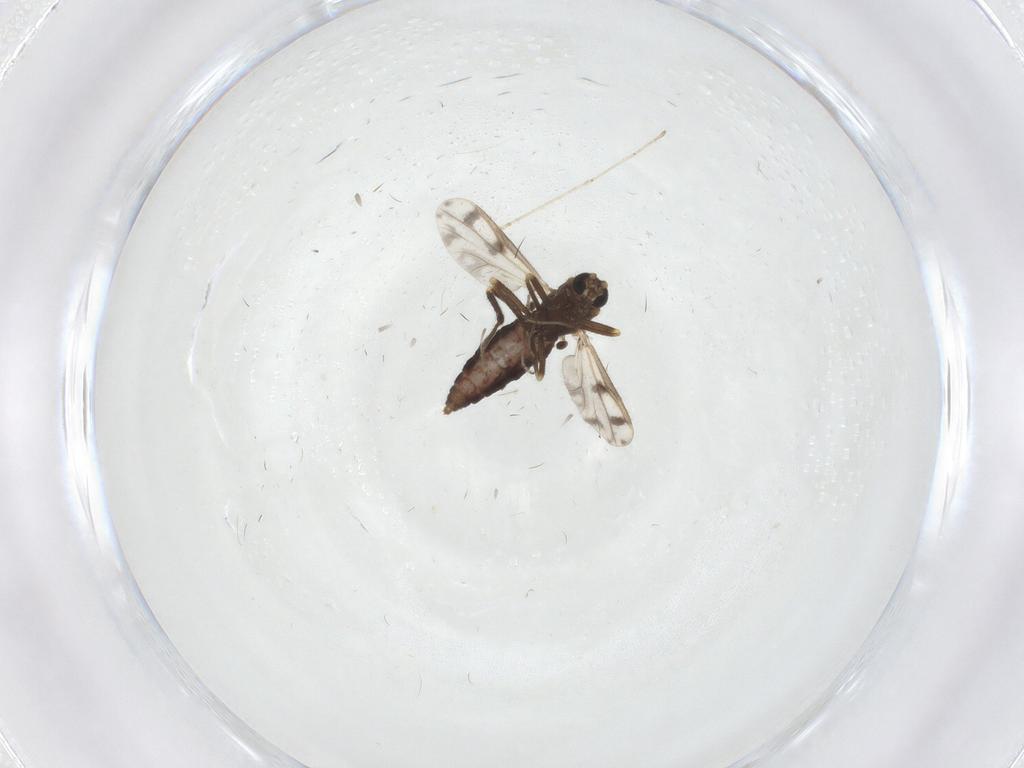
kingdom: Animalia
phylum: Arthropoda
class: Insecta
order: Diptera
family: Ceratopogonidae
